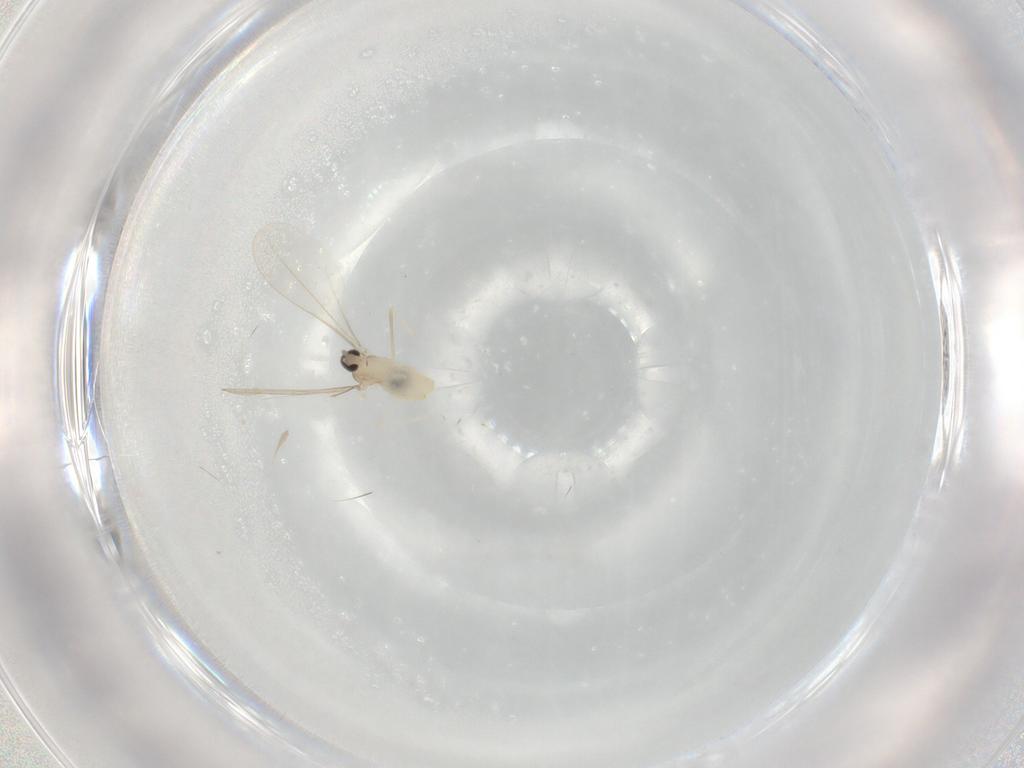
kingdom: Animalia
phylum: Arthropoda
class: Insecta
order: Diptera
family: Cecidomyiidae
